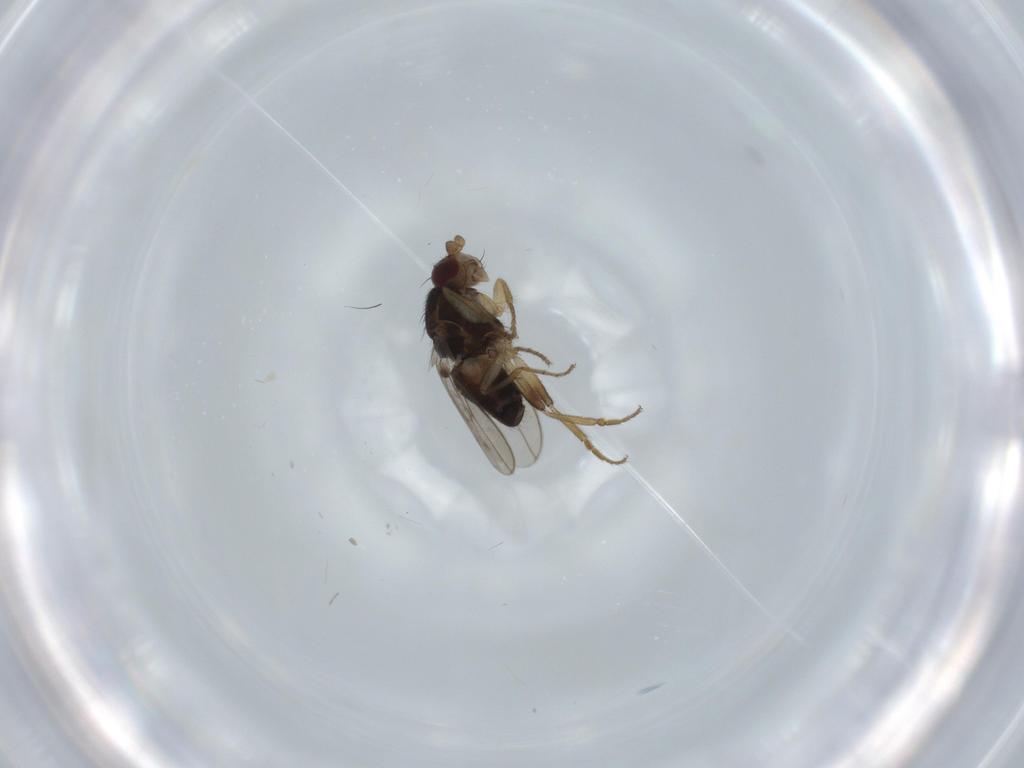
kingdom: Animalia
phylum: Arthropoda
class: Insecta
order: Diptera
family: Sphaeroceridae
